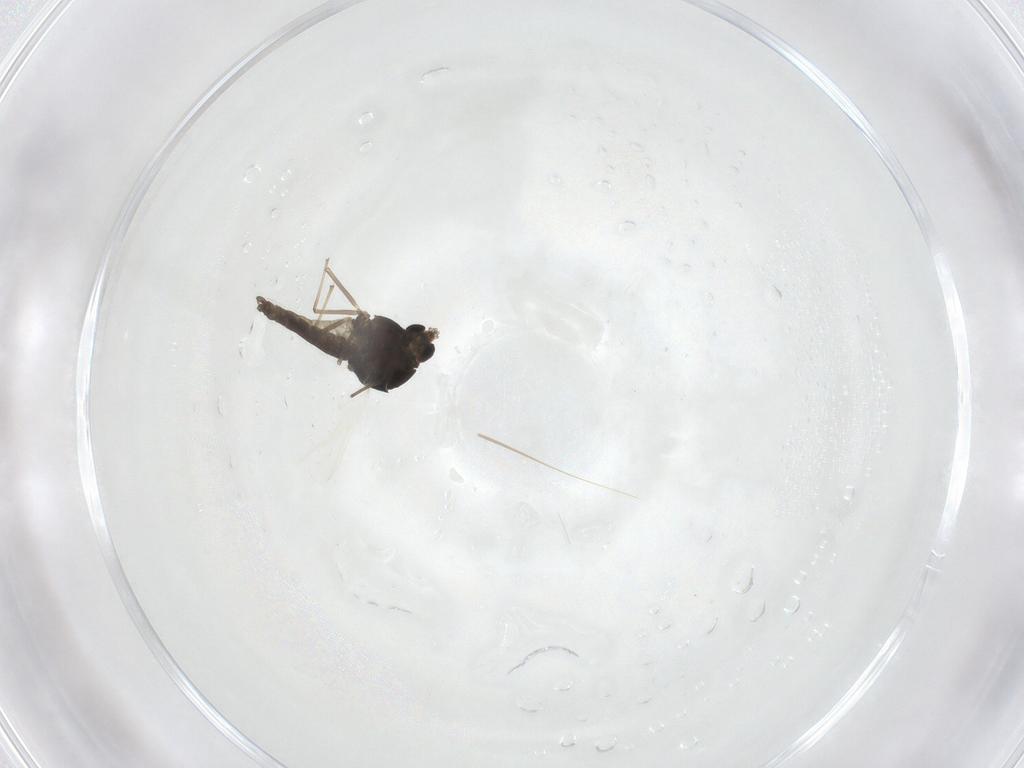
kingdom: Animalia
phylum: Arthropoda
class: Insecta
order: Diptera
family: Chironomidae
